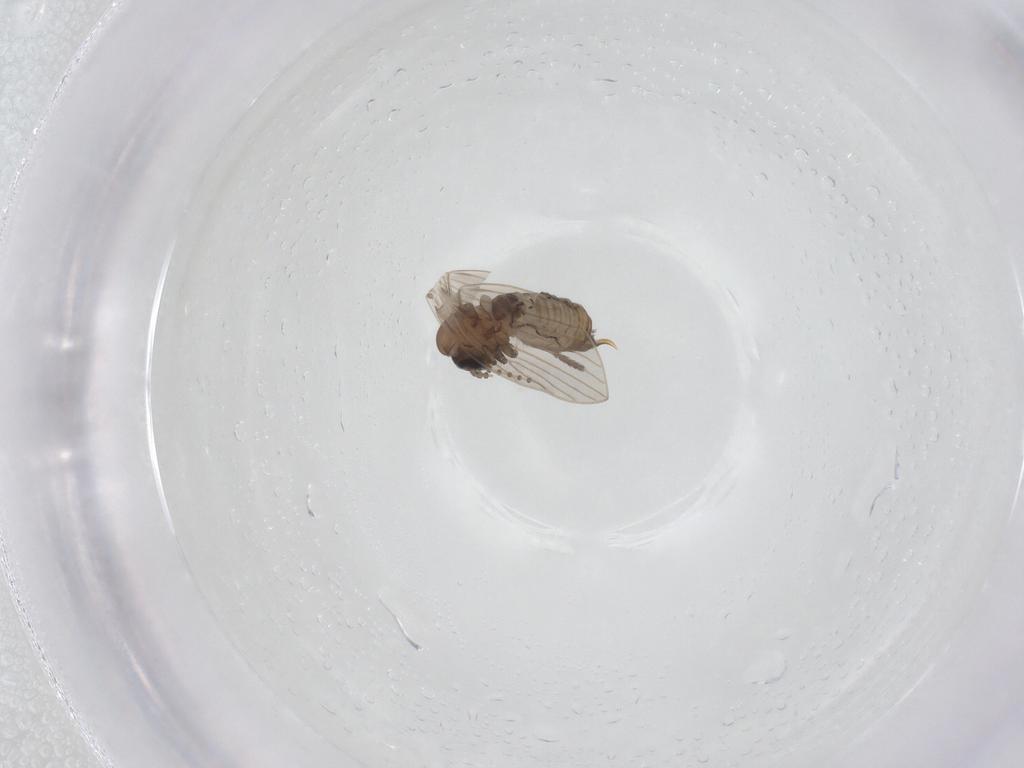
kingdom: Animalia
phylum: Arthropoda
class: Insecta
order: Diptera
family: Psychodidae
